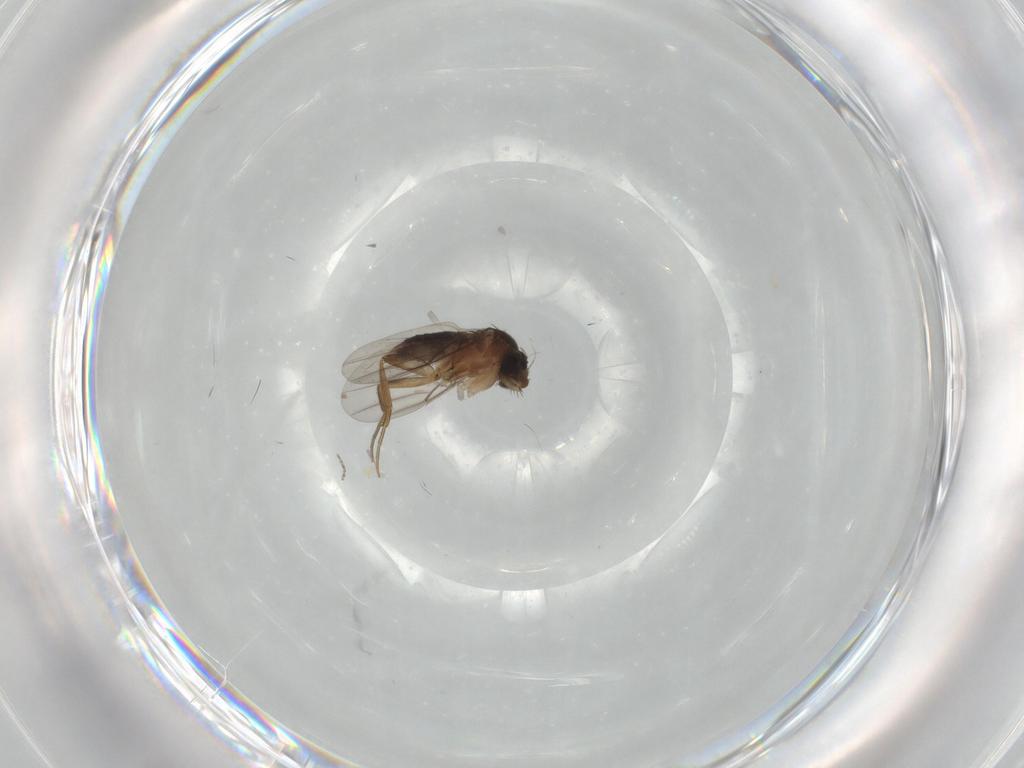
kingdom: Animalia
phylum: Arthropoda
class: Insecta
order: Diptera
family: Phoridae
